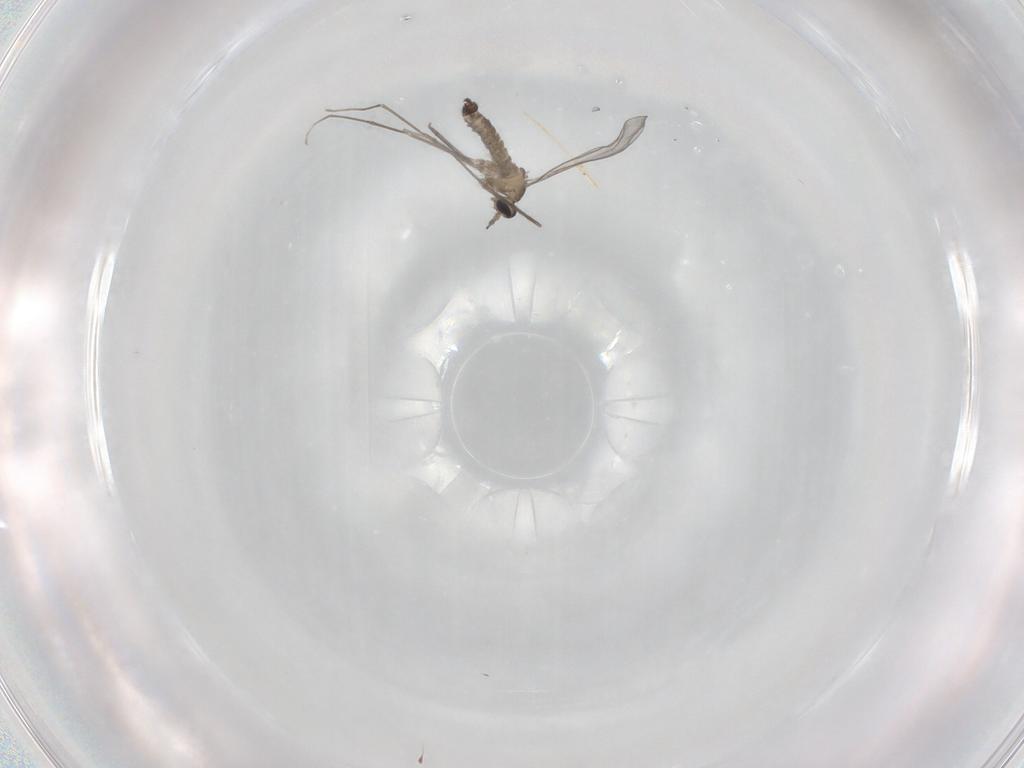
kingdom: Animalia
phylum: Arthropoda
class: Insecta
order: Diptera
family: Cecidomyiidae
